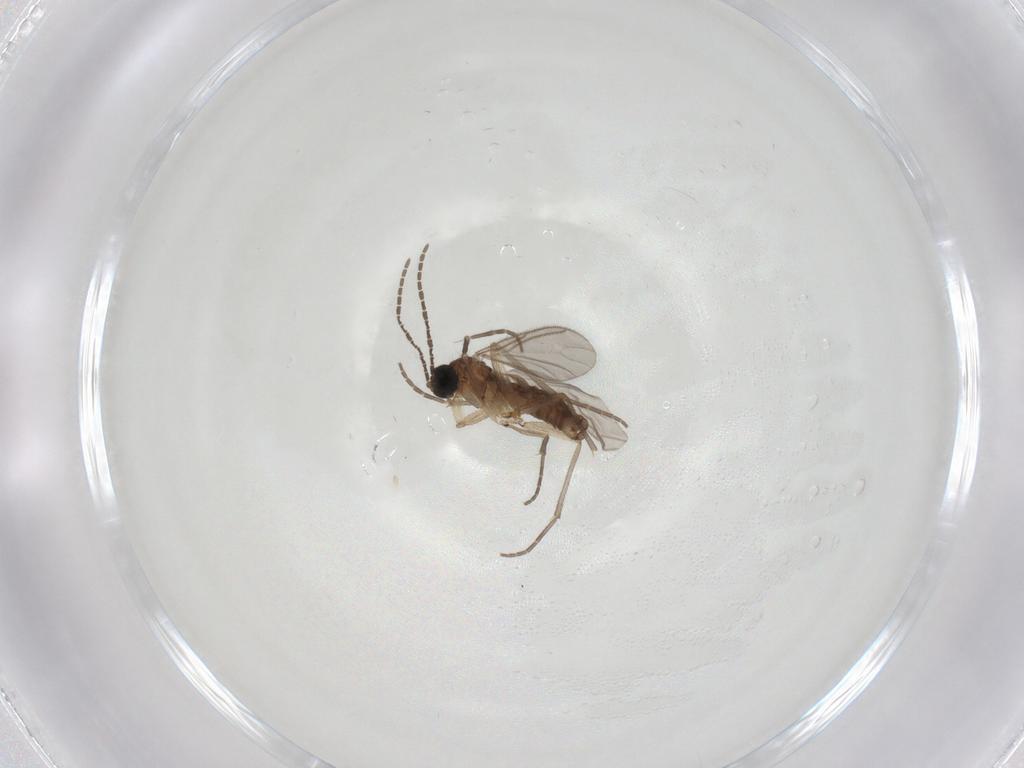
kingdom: Animalia
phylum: Arthropoda
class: Insecta
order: Diptera
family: Sciaridae
